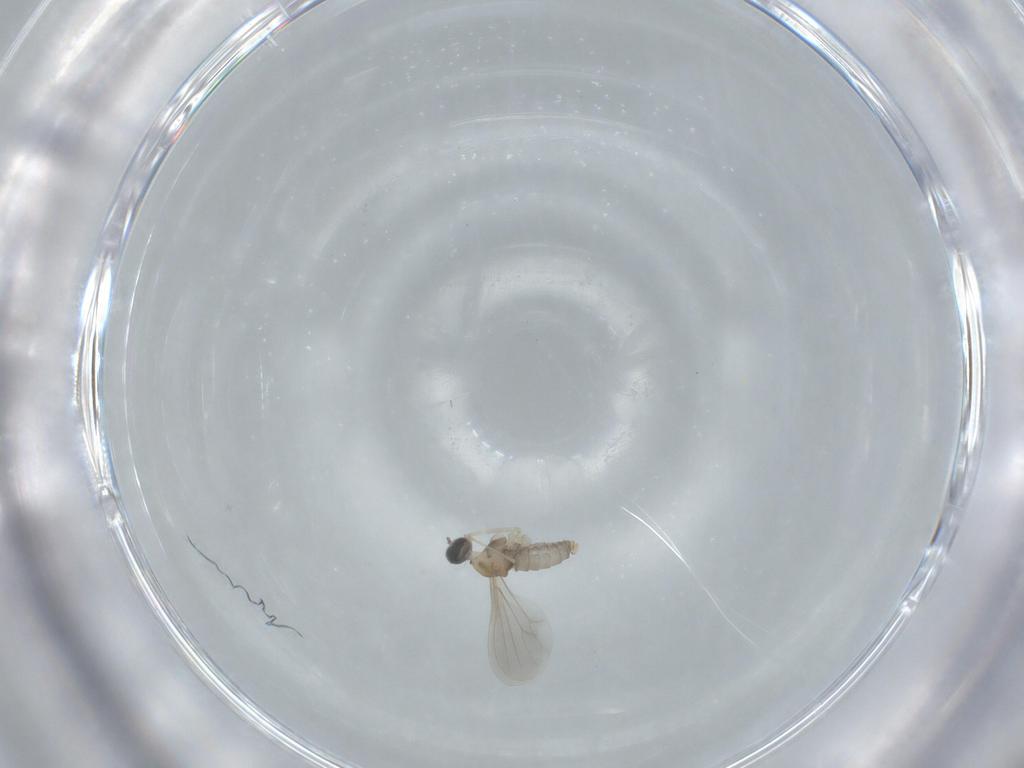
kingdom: Animalia
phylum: Arthropoda
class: Insecta
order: Diptera
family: Cecidomyiidae
